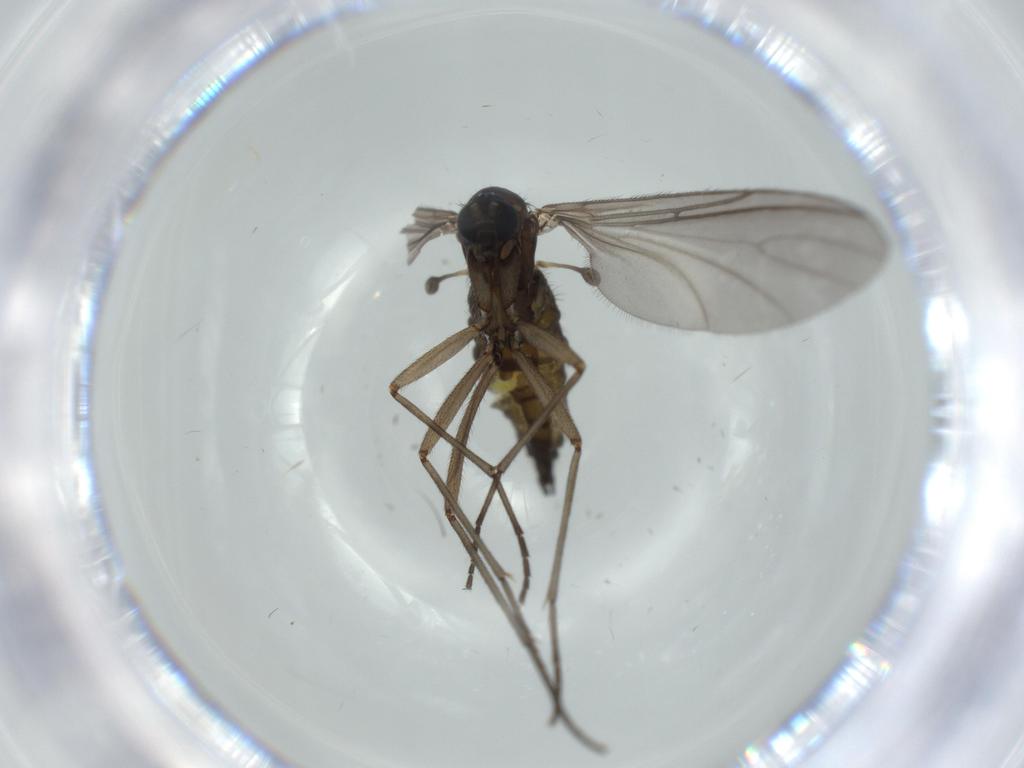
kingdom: Animalia
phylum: Arthropoda
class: Insecta
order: Diptera
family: Sciaridae
